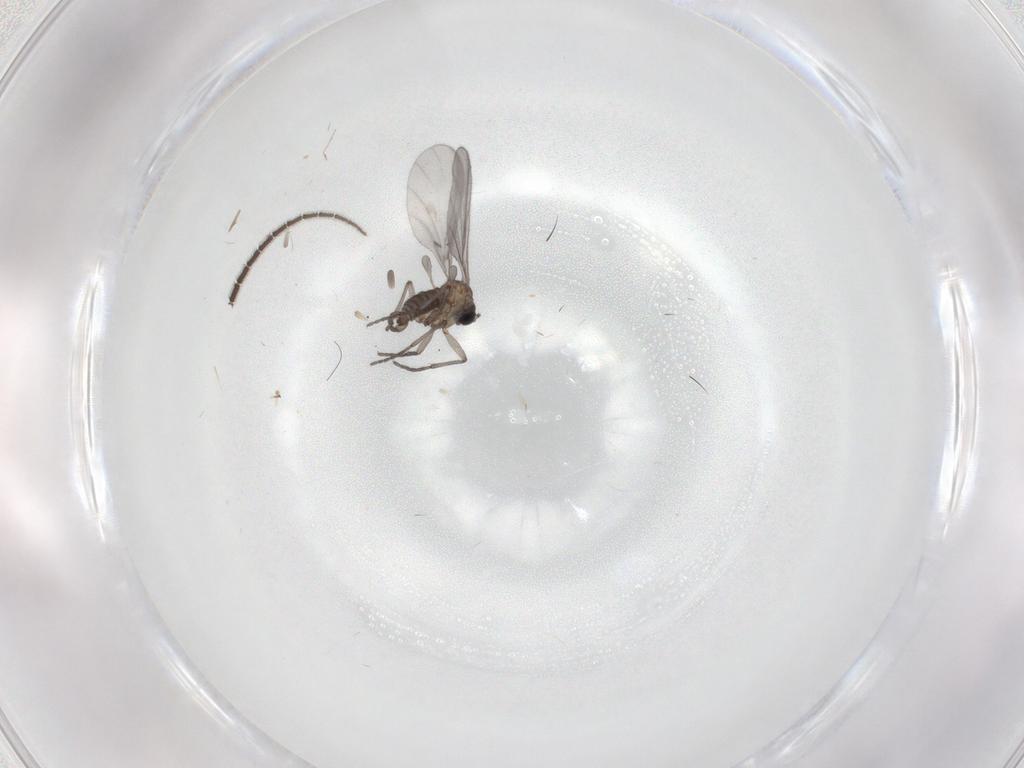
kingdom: Animalia
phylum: Arthropoda
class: Insecta
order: Diptera
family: Sciaridae
